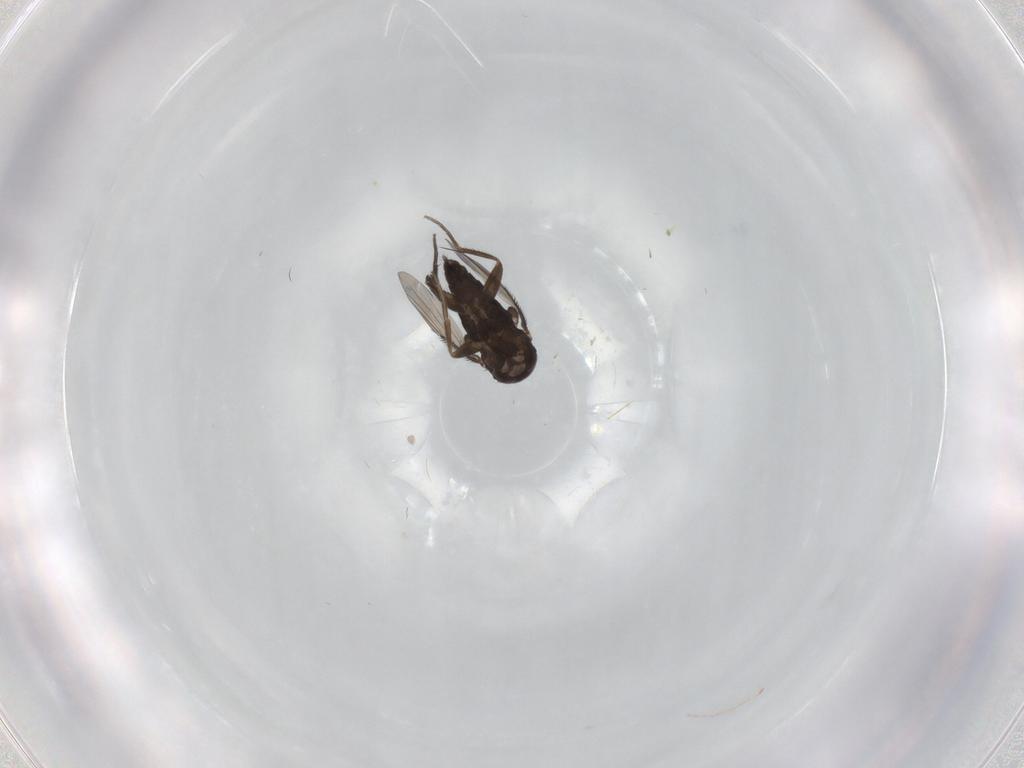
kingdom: Animalia
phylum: Arthropoda
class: Insecta
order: Diptera
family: Phoridae
